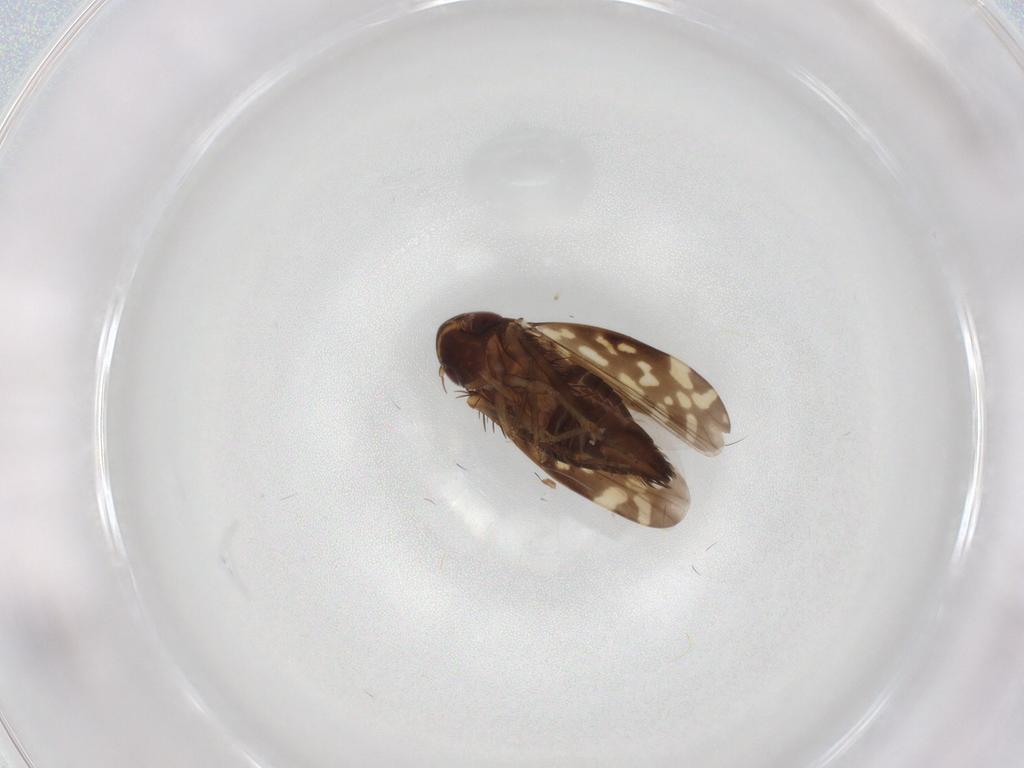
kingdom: Animalia
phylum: Arthropoda
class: Insecta
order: Hemiptera
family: Cicadellidae
